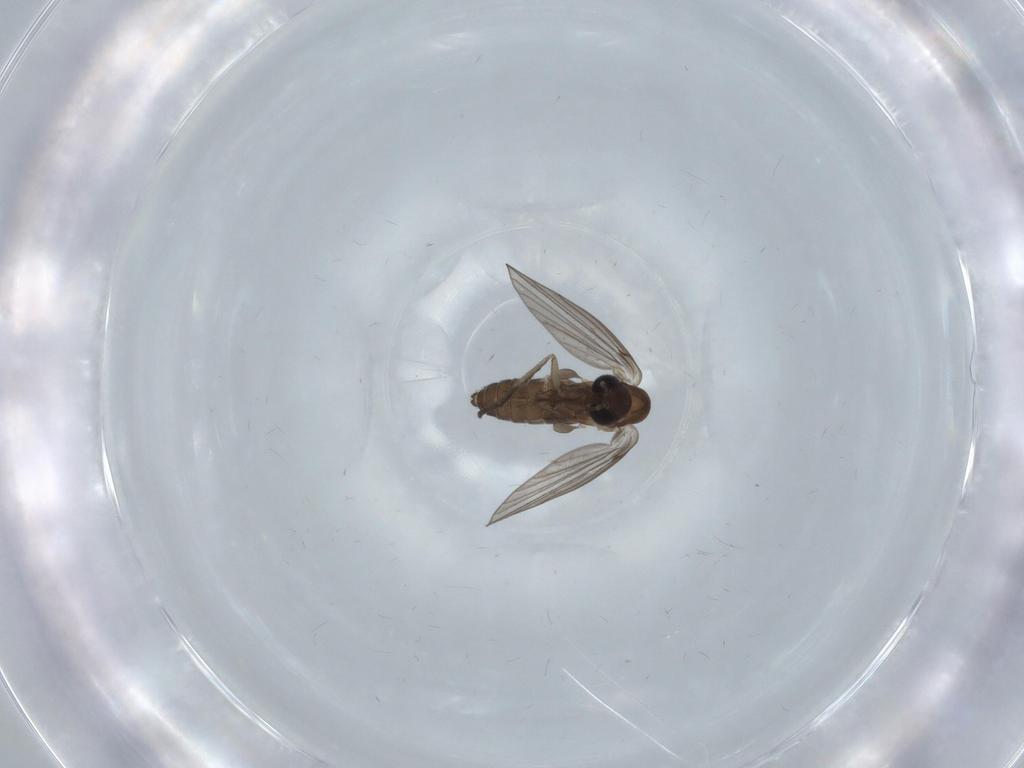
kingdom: Animalia
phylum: Arthropoda
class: Insecta
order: Diptera
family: Psychodidae
